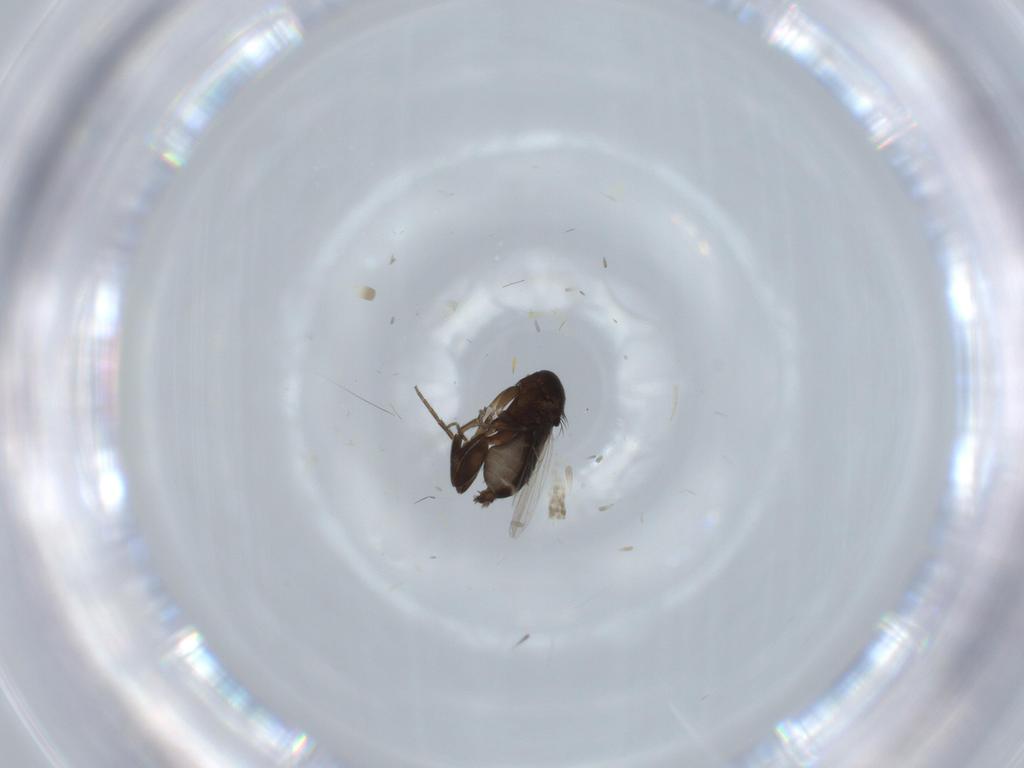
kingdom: Animalia
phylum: Arthropoda
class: Insecta
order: Diptera
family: Phoridae
